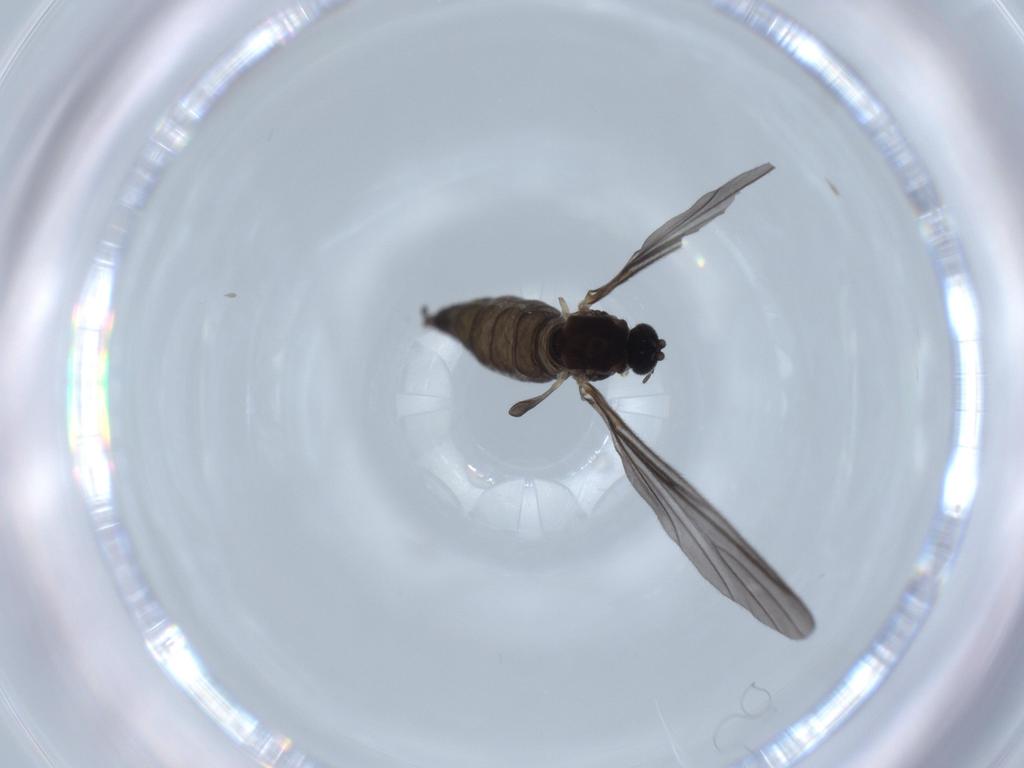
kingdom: Animalia
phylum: Arthropoda
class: Insecta
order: Diptera
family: Sciaridae
